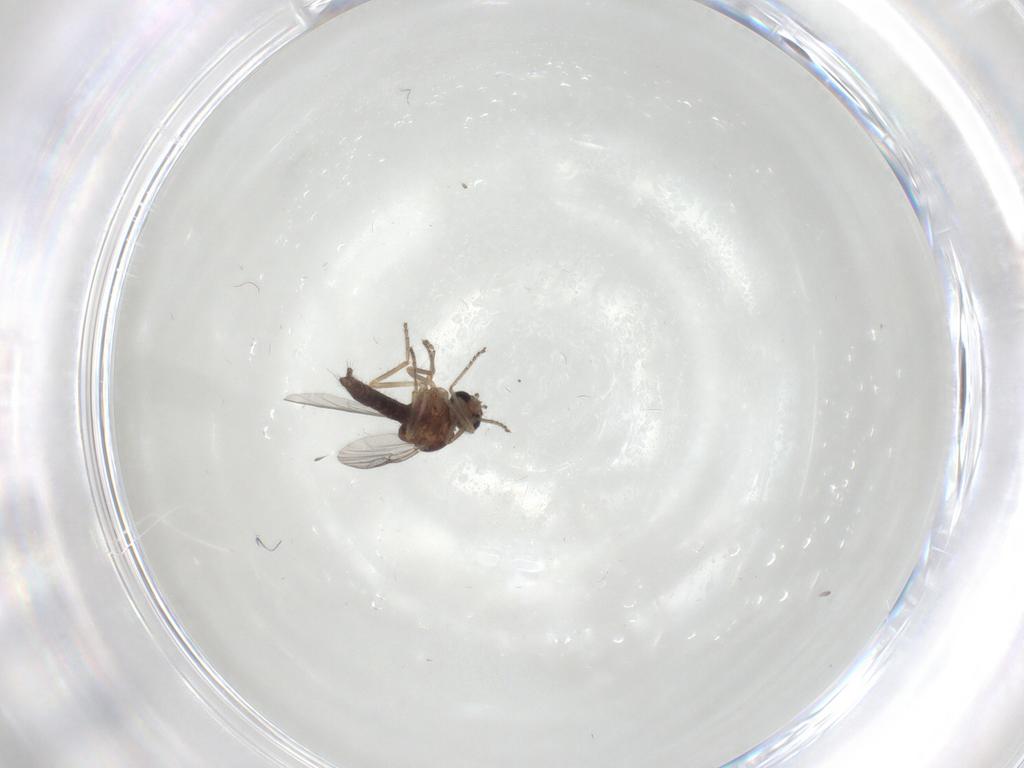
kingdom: Animalia
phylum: Arthropoda
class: Insecta
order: Diptera
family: Ceratopogonidae
